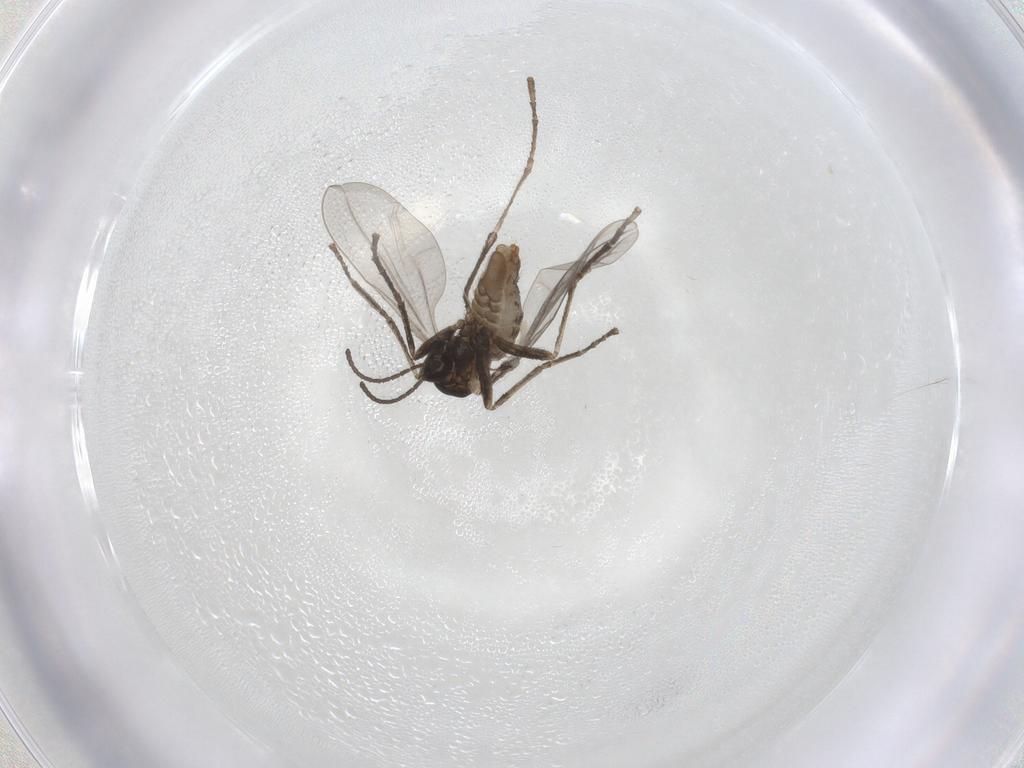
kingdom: Animalia
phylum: Arthropoda
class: Insecta
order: Diptera
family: Cecidomyiidae
